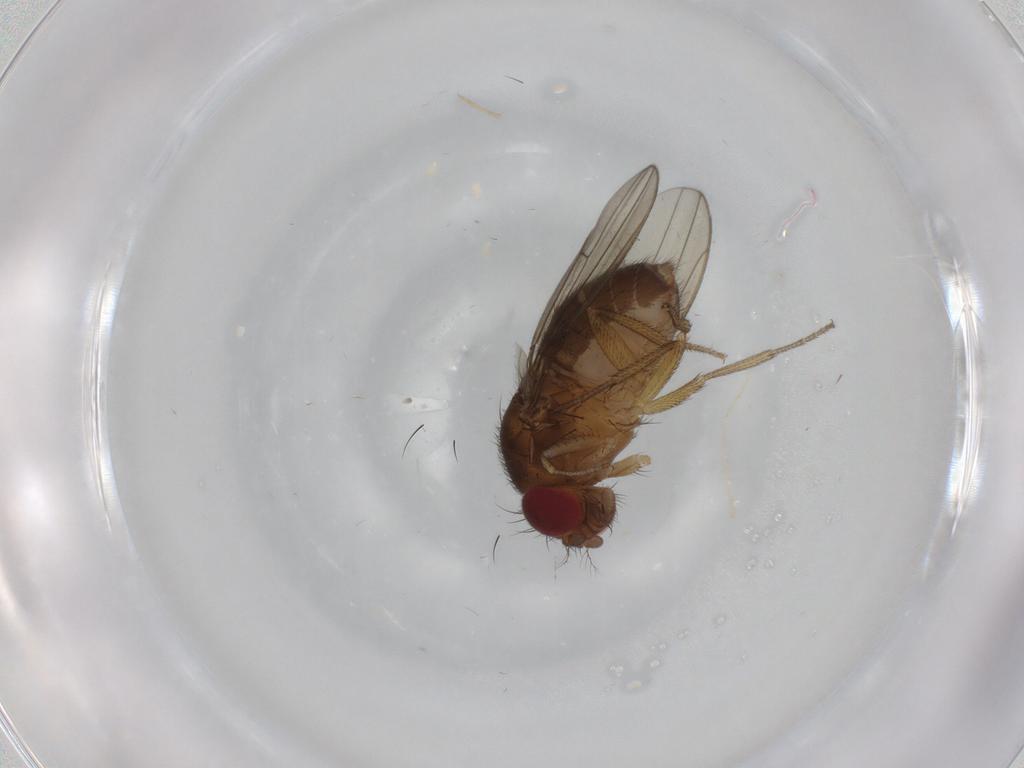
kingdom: Animalia
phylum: Arthropoda
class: Insecta
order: Diptera
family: Drosophilidae
